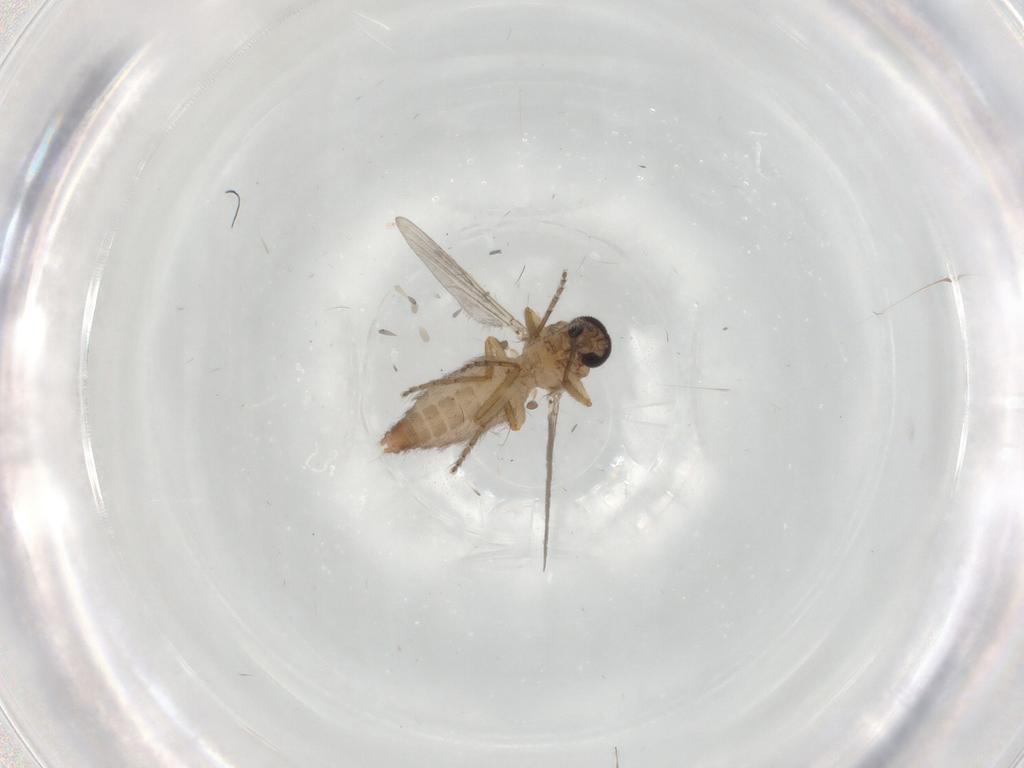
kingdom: Animalia
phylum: Arthropoda
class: Insecta
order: Diptera
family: Ceratopogonidae
